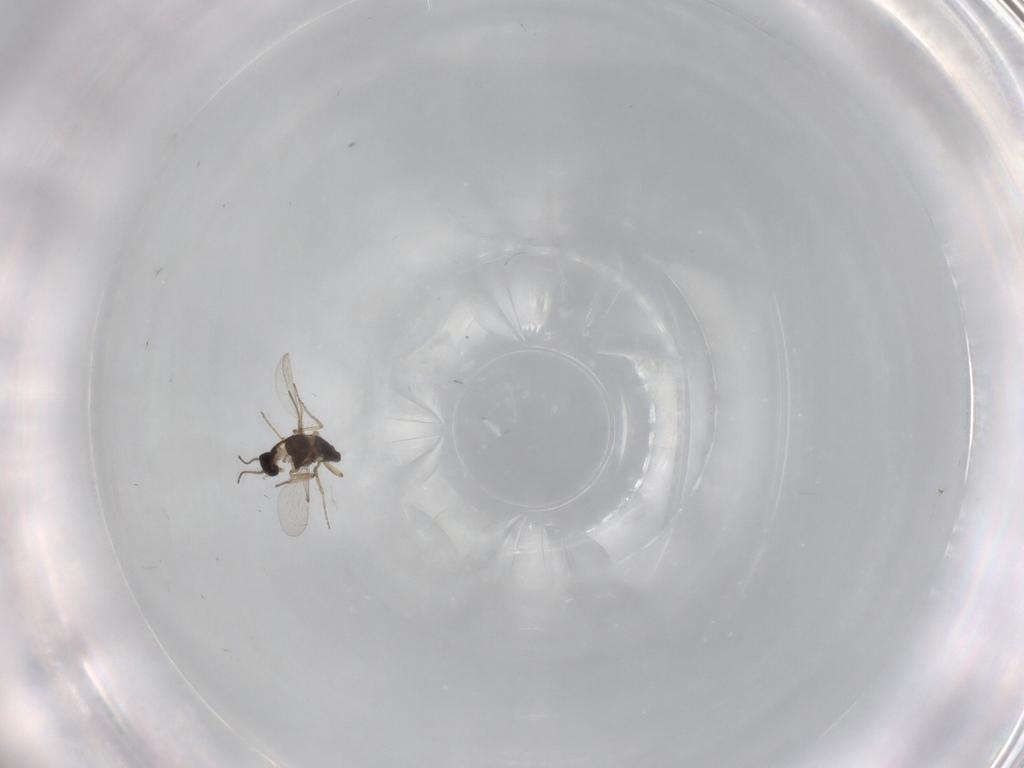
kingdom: Animalia
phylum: Arthropoda
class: Insecta
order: Diptera
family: Ceratopogonidae
